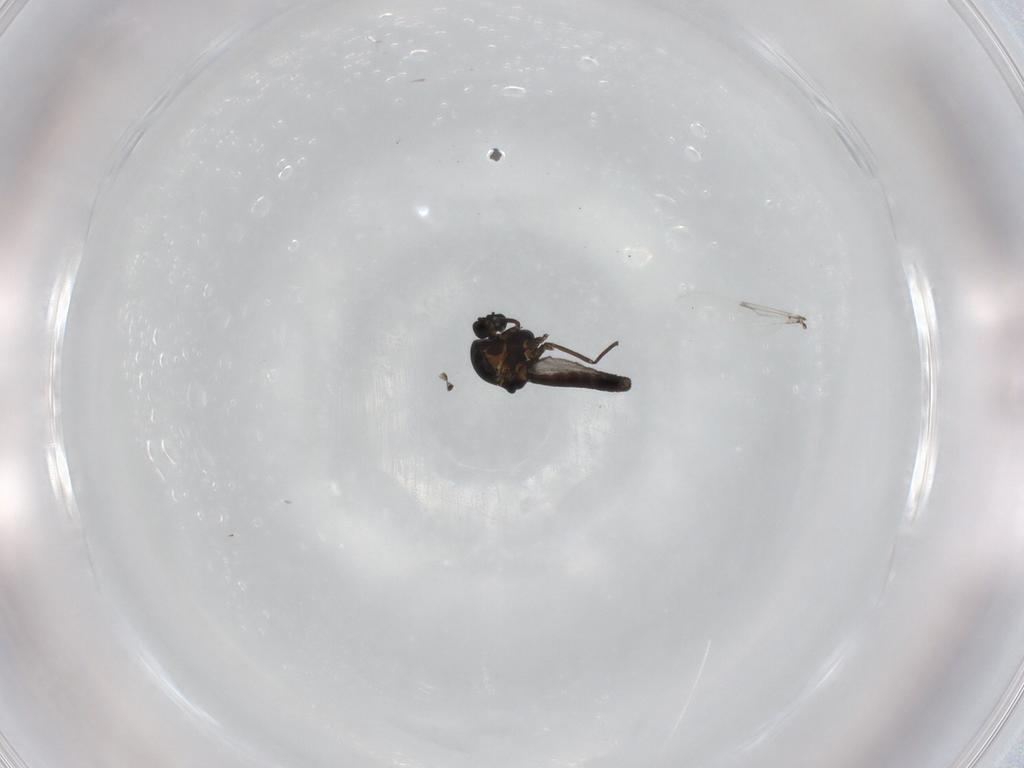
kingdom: Animalia
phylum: Arthropoda
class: Insecta
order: Diptera
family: Ceratopogonidae
